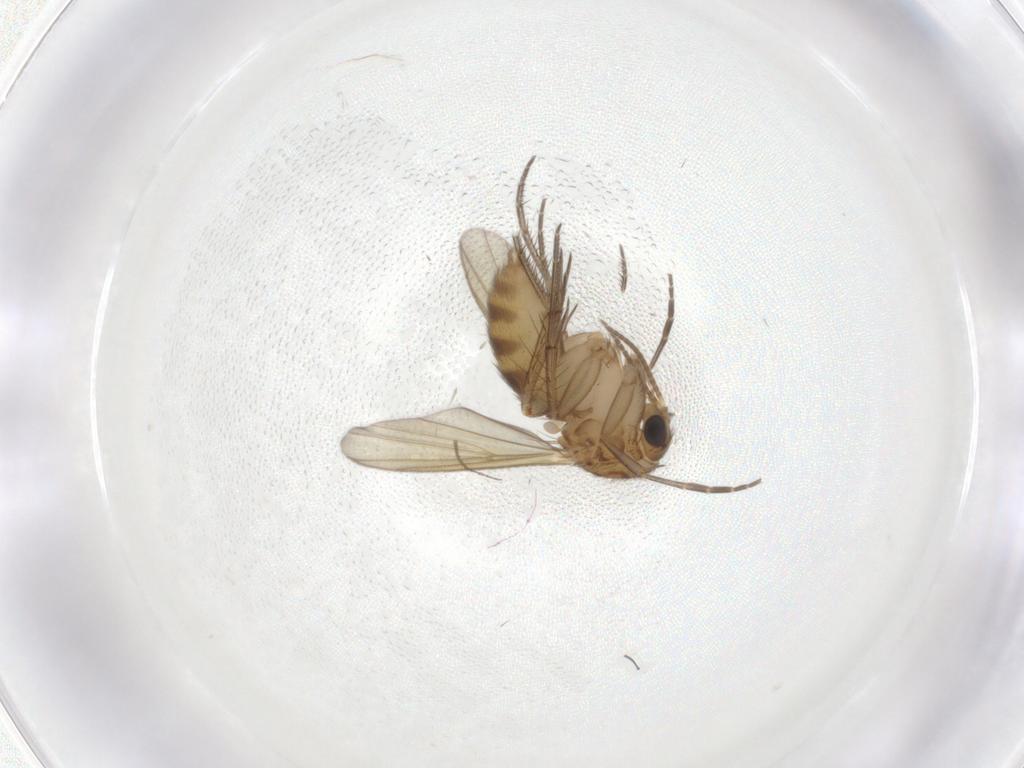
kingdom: Animalia
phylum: Arthropoda
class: Insecta
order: Diptera
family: Mycetophilidae
